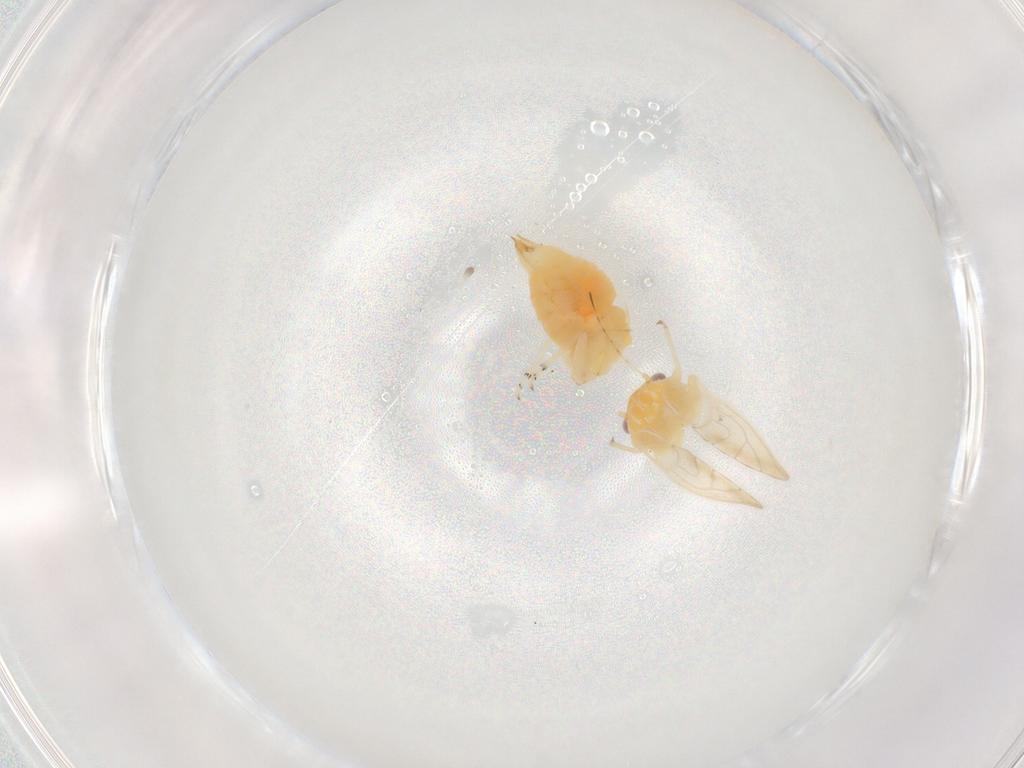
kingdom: Animalia
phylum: Arthropoda
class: Insecta
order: Hemiptera
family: Psyllidae
